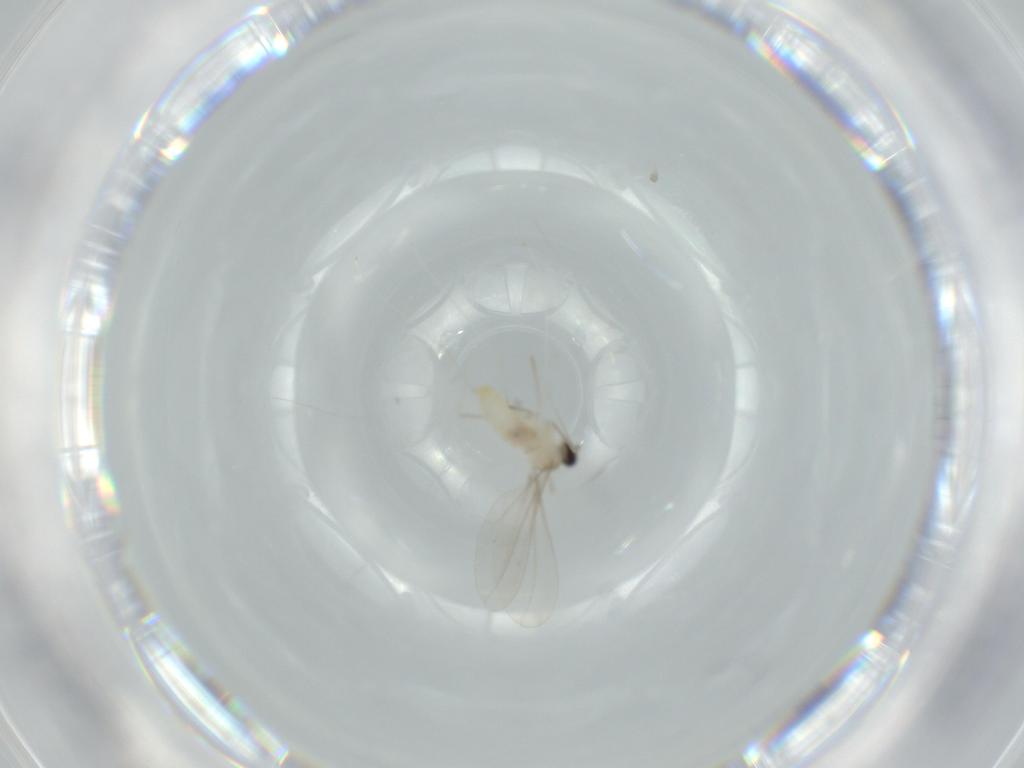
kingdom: Animalia
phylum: Arthropoda
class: Insecta
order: Diptera
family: Cecidomyiidae
